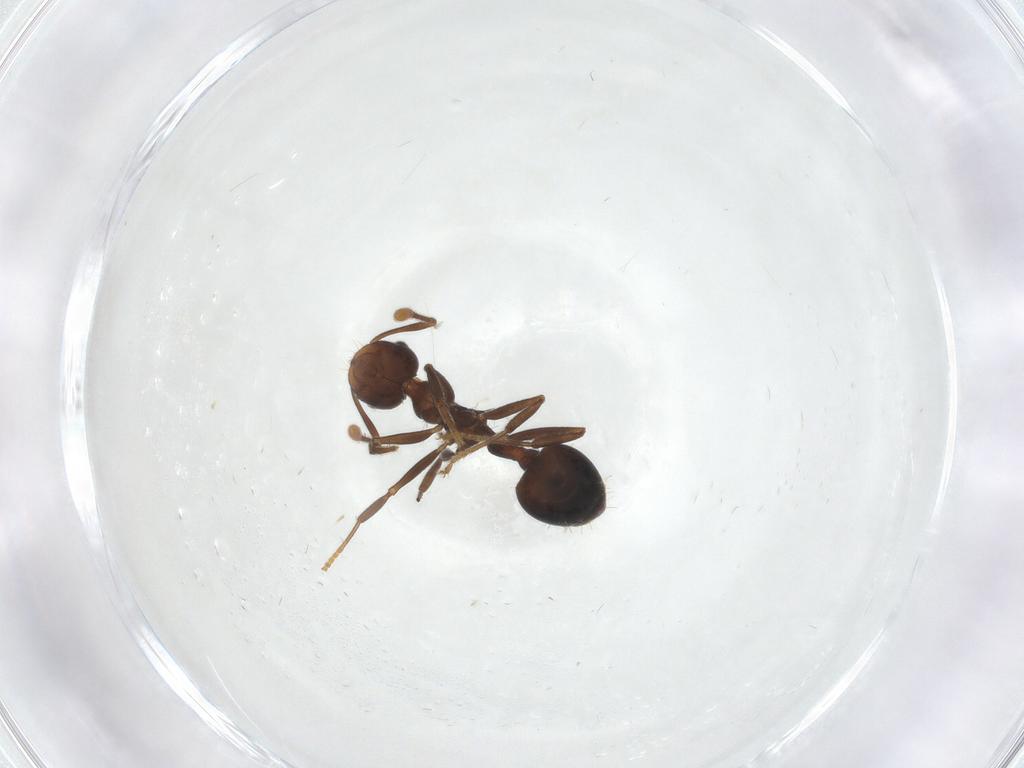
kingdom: Animalia
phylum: Arthropoda
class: Insecta
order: Hymenoptera
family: Formicidae
